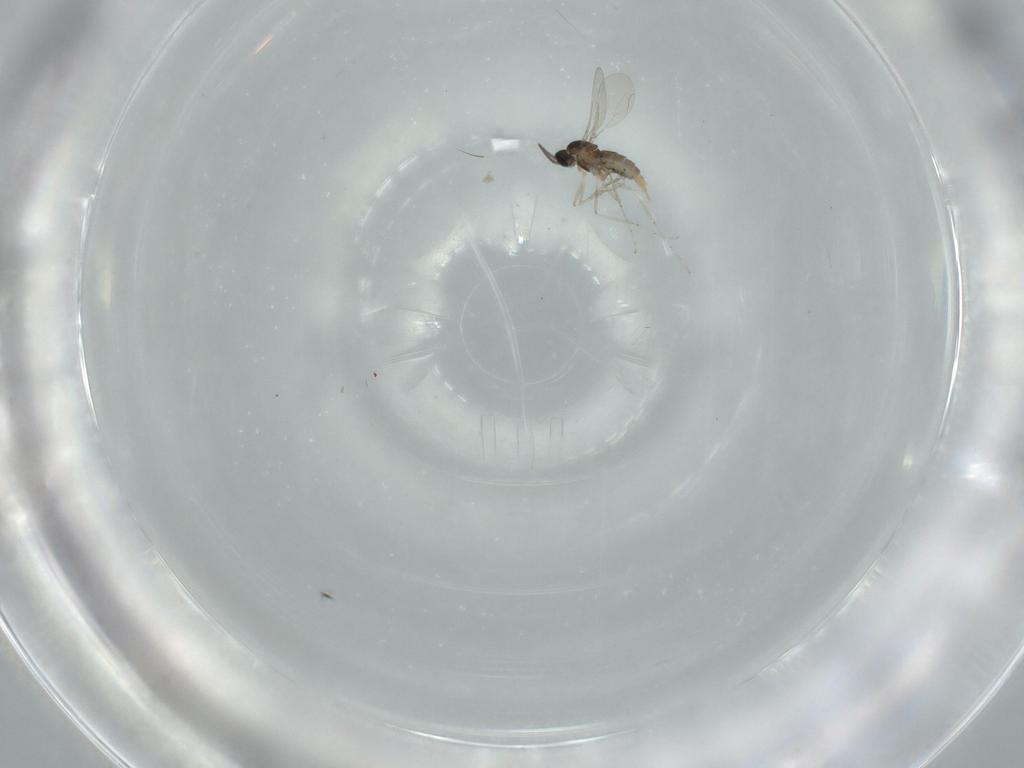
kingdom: Animalia
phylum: Arthropoda
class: Insecta
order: Diptera
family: Cecidomyiidae
